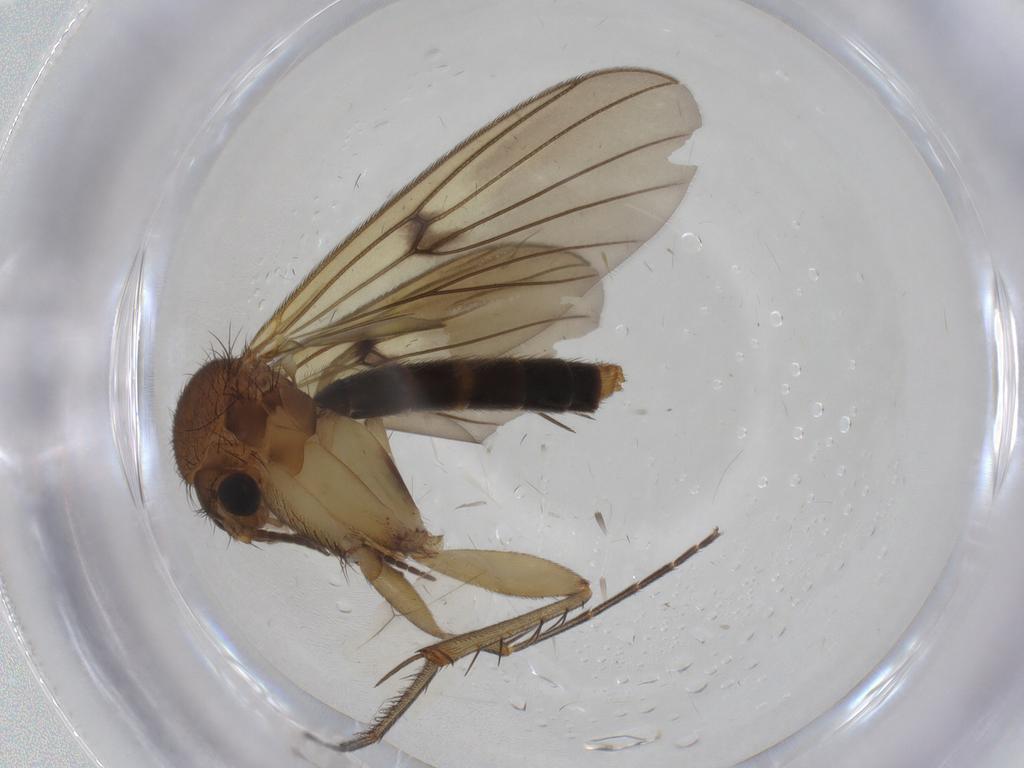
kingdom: Animalia
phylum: Arthropoda
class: Insecta
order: Diptera
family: Mycetophilidae
